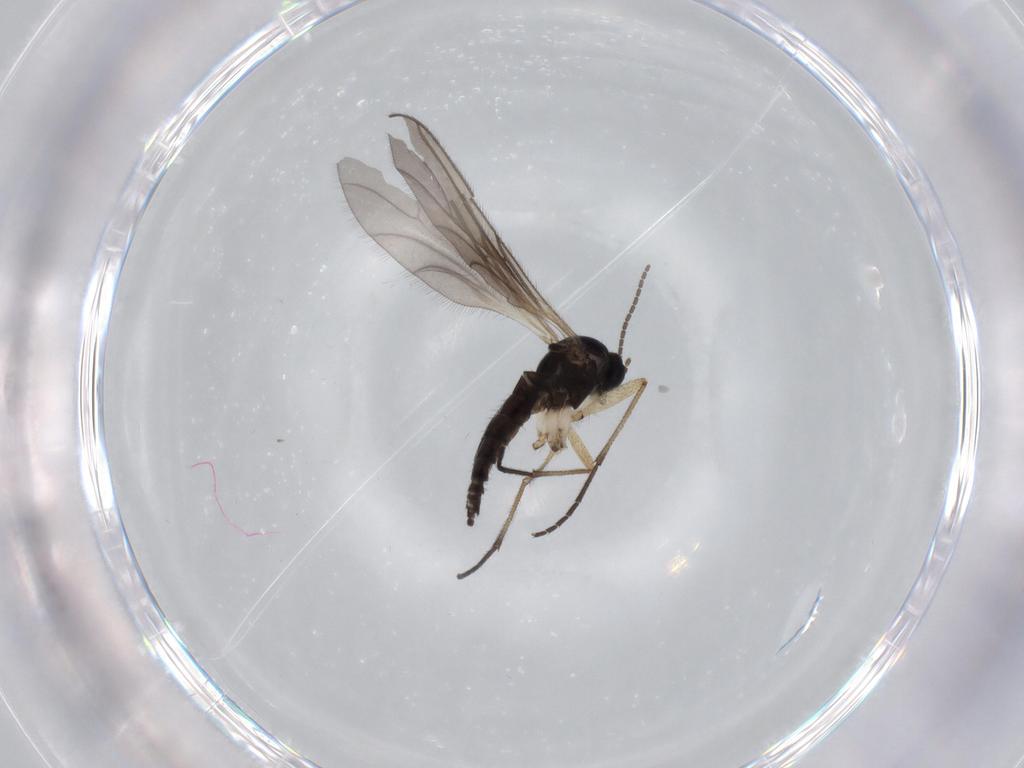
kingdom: Animalia
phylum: Arthropoda
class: Insecta
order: Diptera
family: Sciaridae
